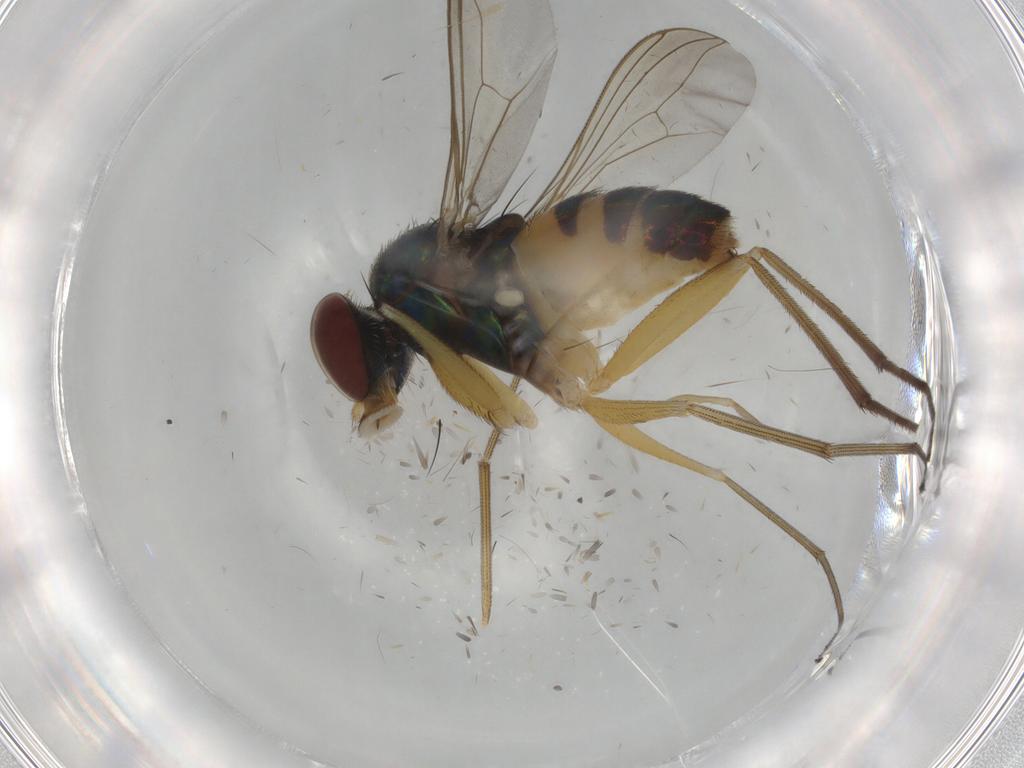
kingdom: Animalia
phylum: Arthropoda
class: Insecta
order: Diptera
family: Chironomidae
